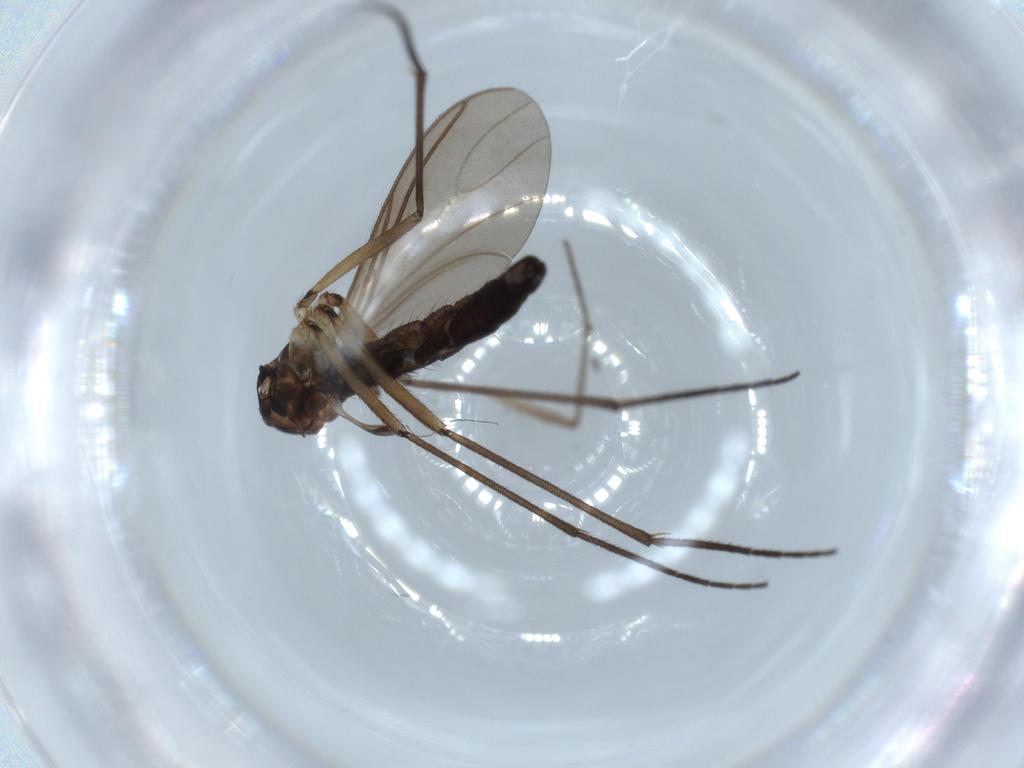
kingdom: Animalia
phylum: Arthropoda
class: Insecta
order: Diptera
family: Sciaridae
